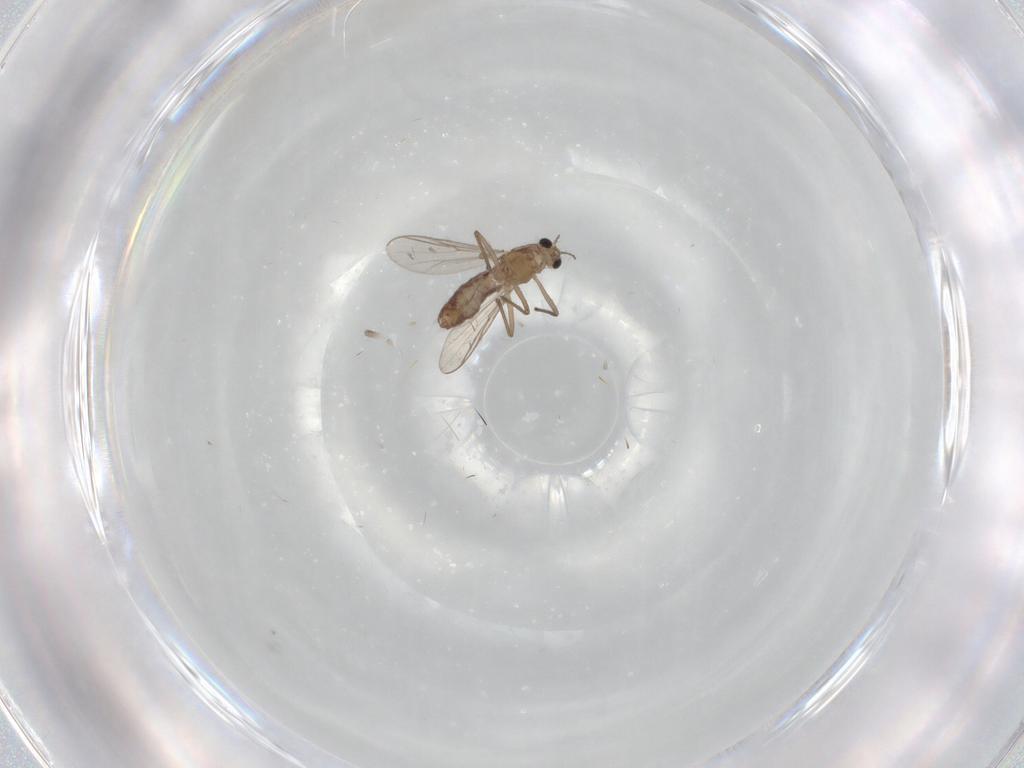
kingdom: Animalia
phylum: Arthropoda
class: Insecta
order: Diptera
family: Chironomidae
